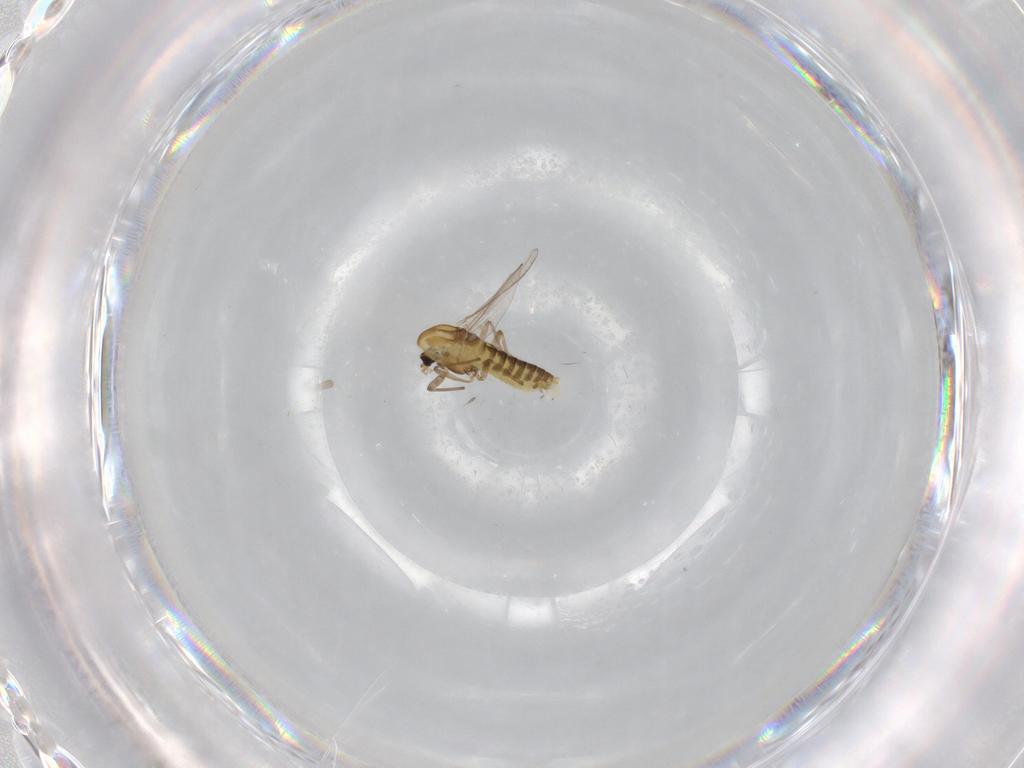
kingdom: Animalia
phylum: Arthropoda
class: Insecta
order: Diptera
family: Chironomidae
